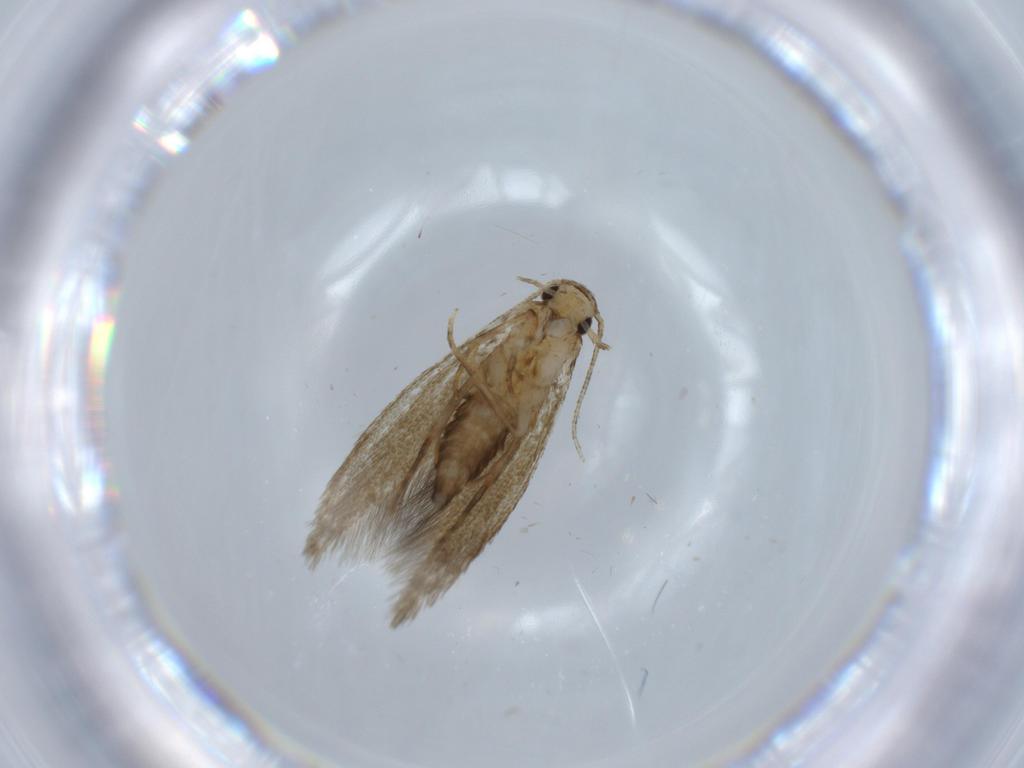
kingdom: Animalia
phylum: Arthropoda
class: Insecta
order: Lepidoptera
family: Tineidae
